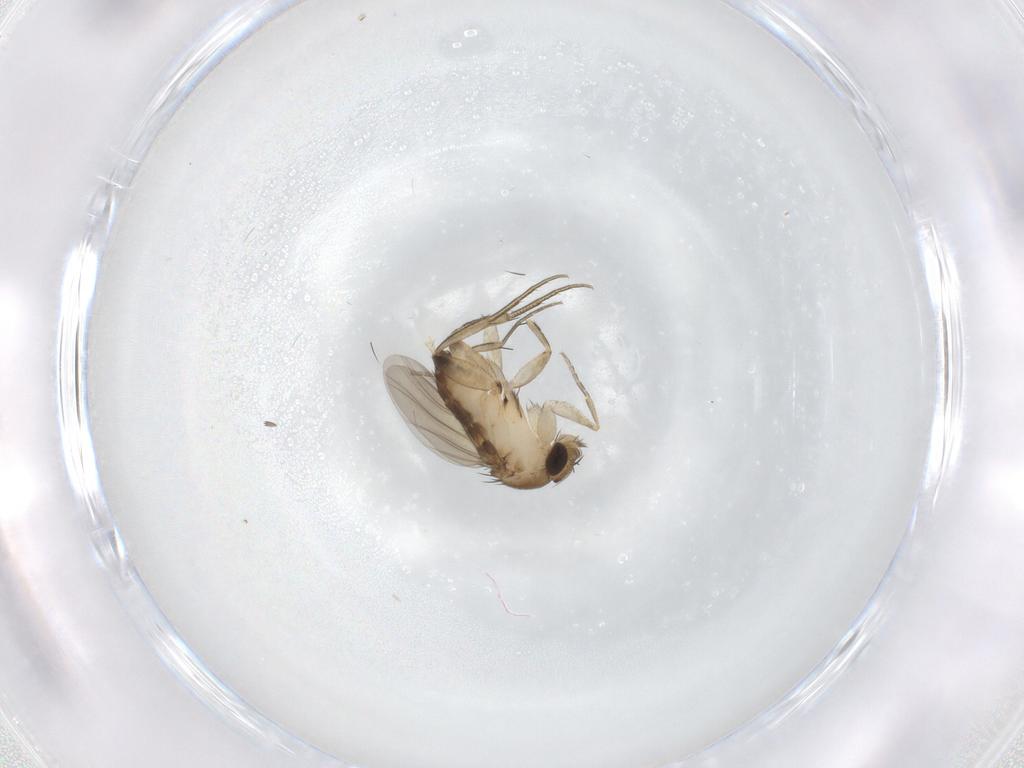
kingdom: Animalia
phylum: Arthropoda
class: Insecta
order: Diptera
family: Phoridae
